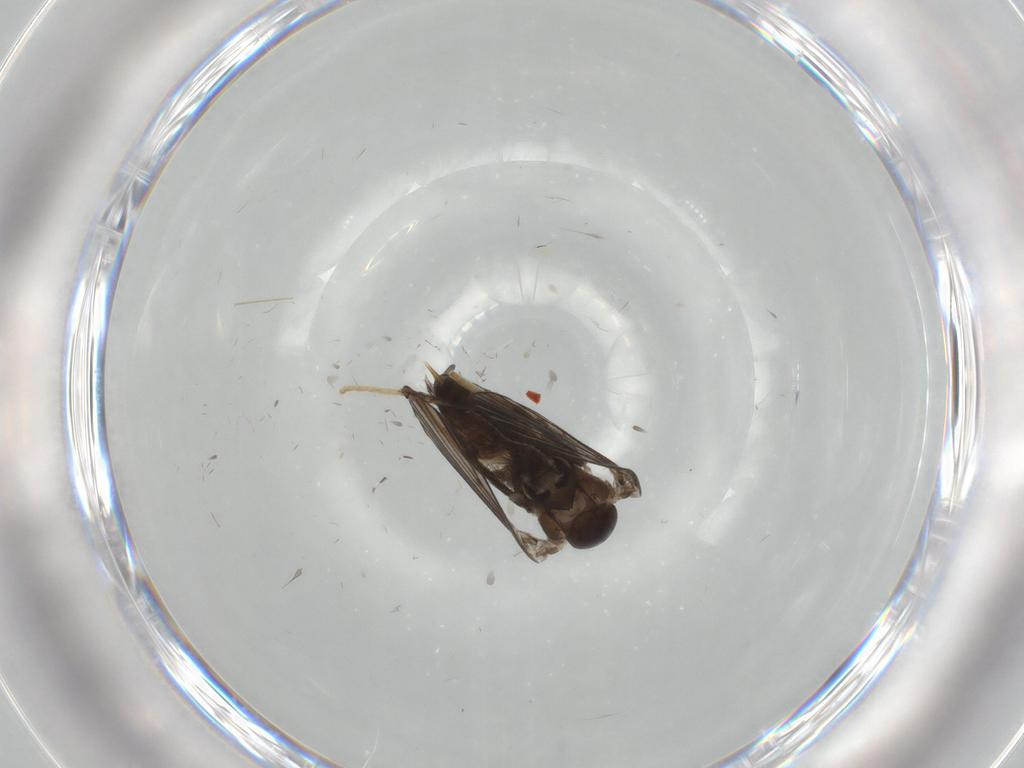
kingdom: Animalia
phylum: Arthropoda
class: Insecta
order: Diptera
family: Psychodidae
